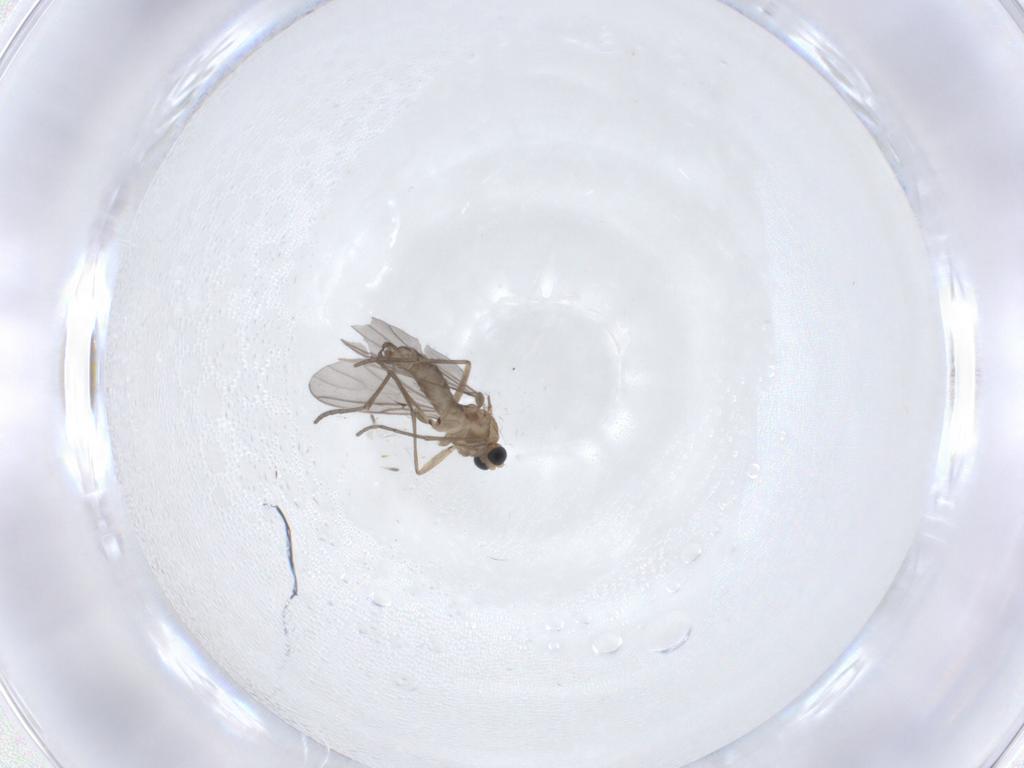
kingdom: Animalia
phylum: Arthropoda
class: Insecta
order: Diptera
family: Sciaridae
